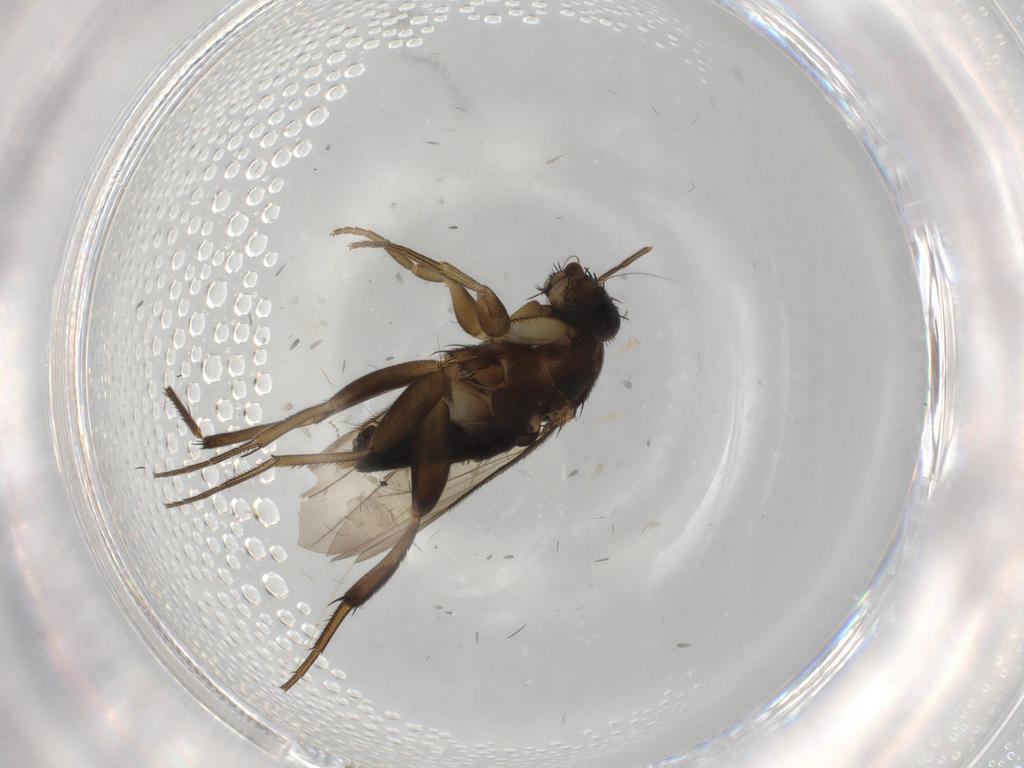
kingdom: Animalia
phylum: Arthropoda
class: Insecta
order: Diptera
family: Phoridae
